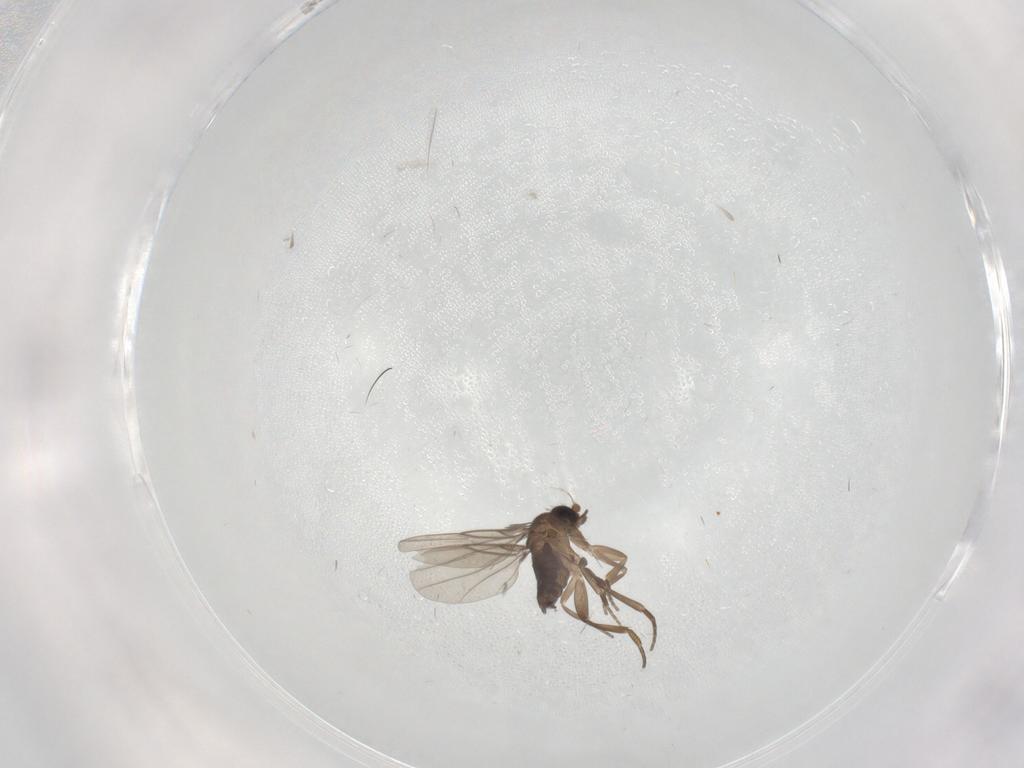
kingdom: Animalia
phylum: Arthropoda
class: Insecta
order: Diptera
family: Phoridae
